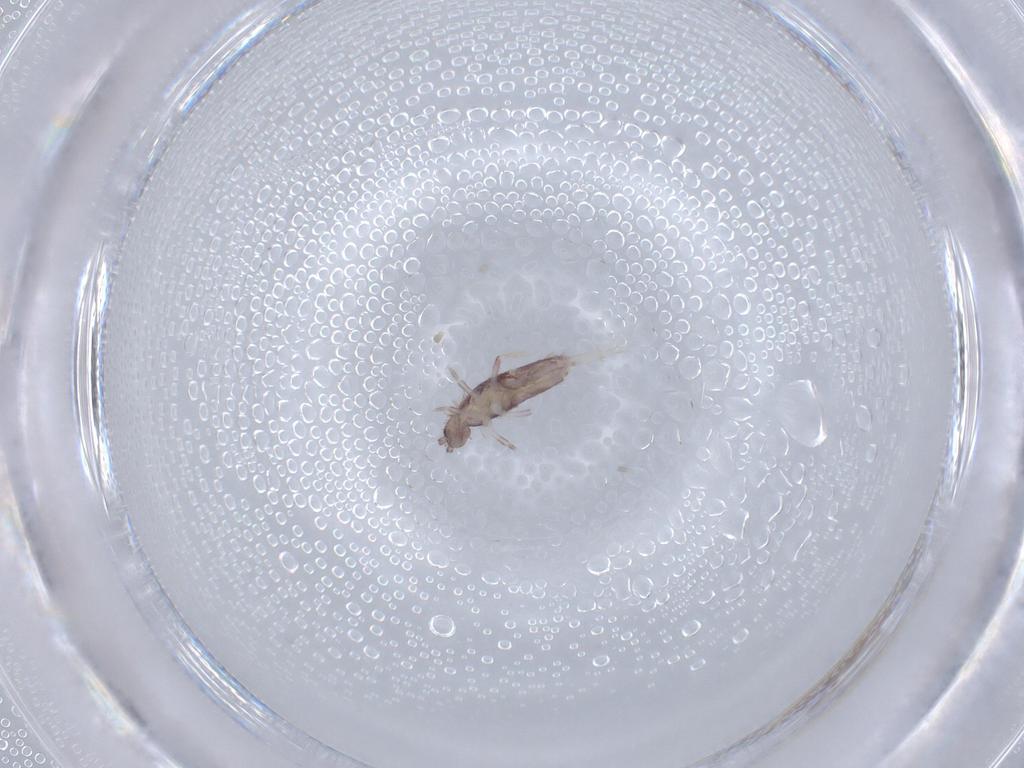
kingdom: Animalia
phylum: Arthropoda
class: Collembola
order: Poduromorpha
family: Hypogastruridae
